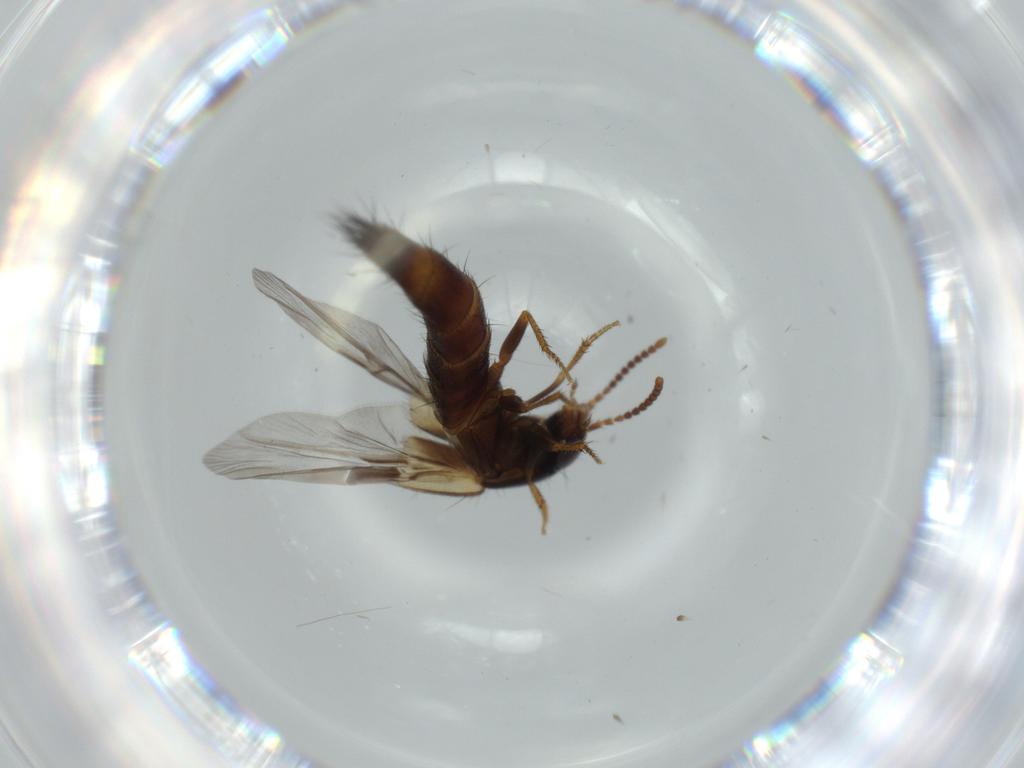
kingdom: Animalia
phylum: Arthropoda
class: Insecta
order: Coleoptera
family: Staphylinidae
